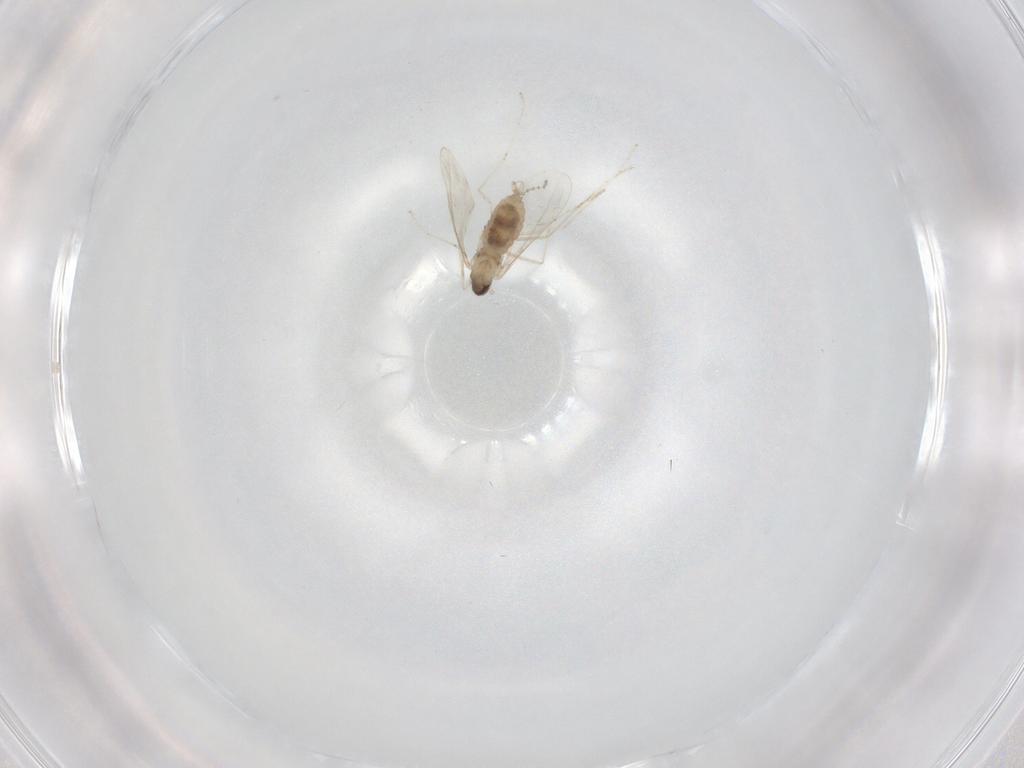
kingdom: Animalia
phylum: Arthropoda
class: Insecta
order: Diptera
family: Cecidomyiidae
